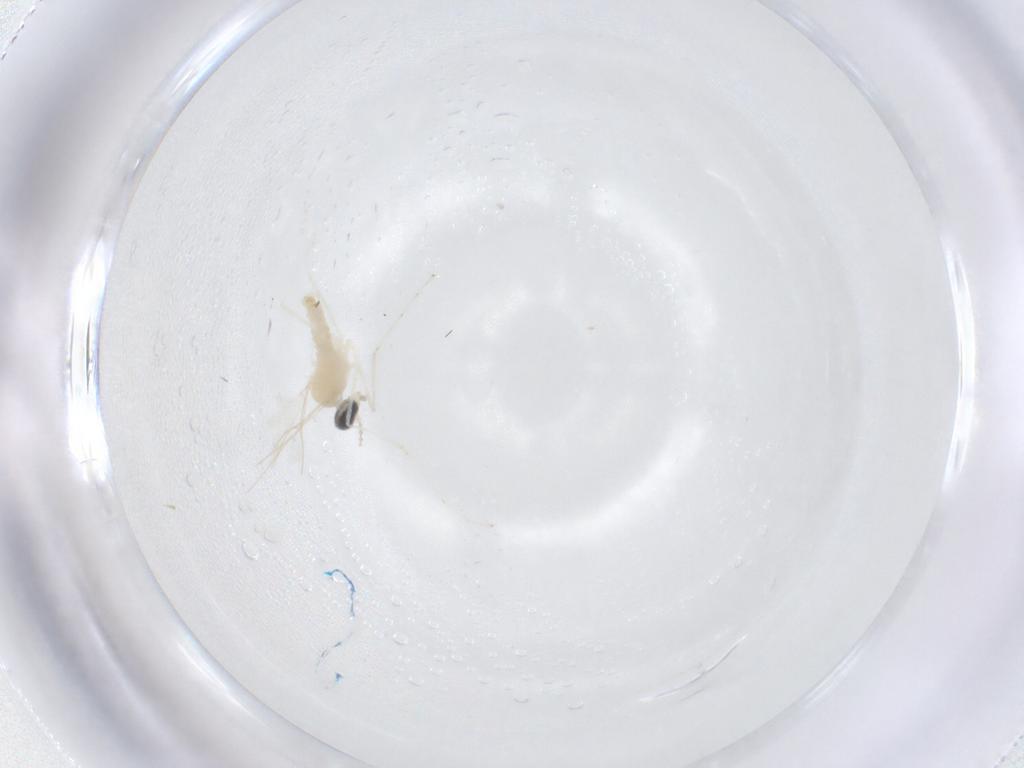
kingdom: Animalia
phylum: Arthropoda
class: Insecta
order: Diptera
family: Cecidomyiidae
